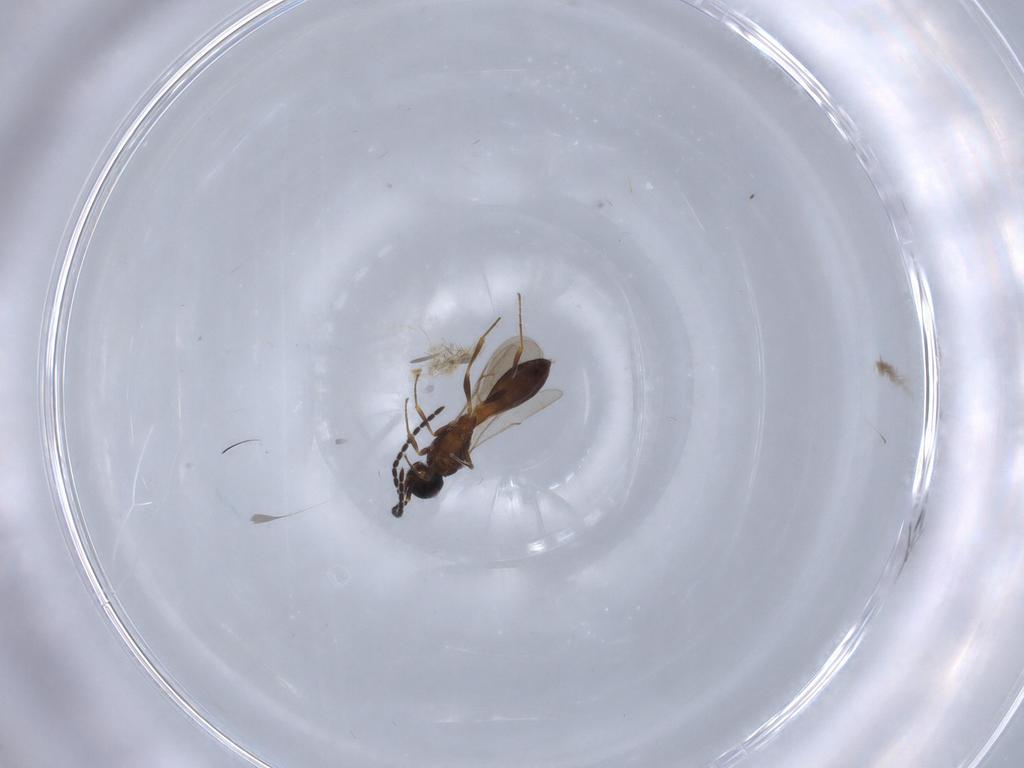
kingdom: Animalia
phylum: Arthropoda
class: Insecta
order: Hymenoptera
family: Scelionidae
